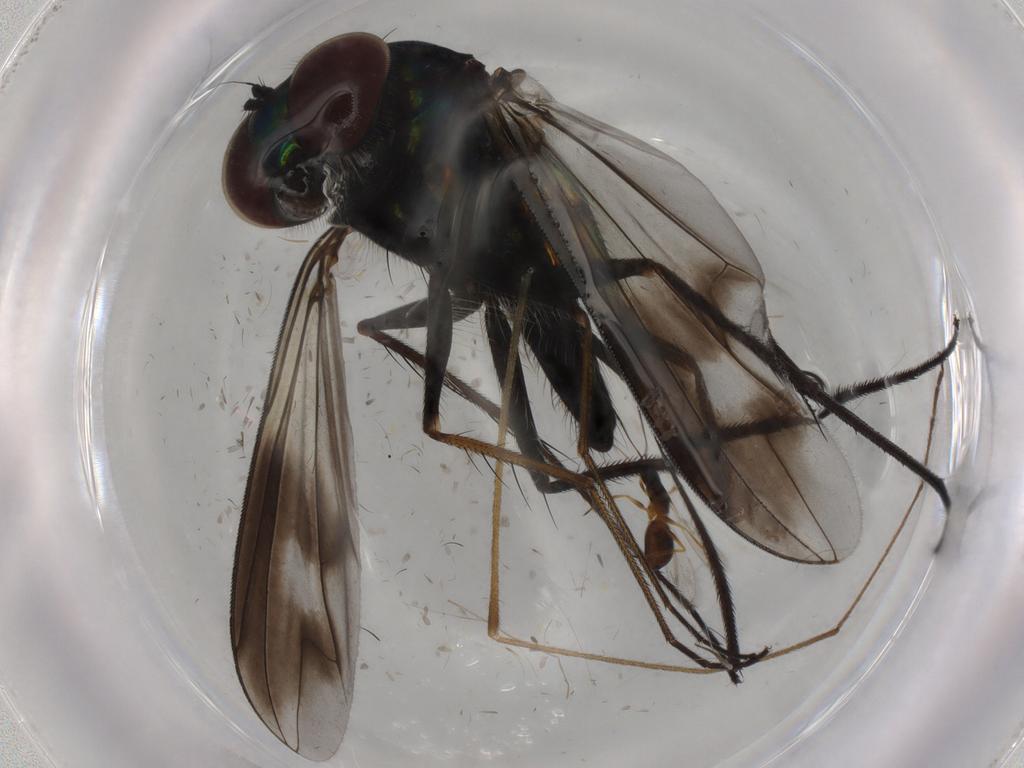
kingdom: Animalia
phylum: Arthropoda
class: Insecta
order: Diptera
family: Dolichopodidae
